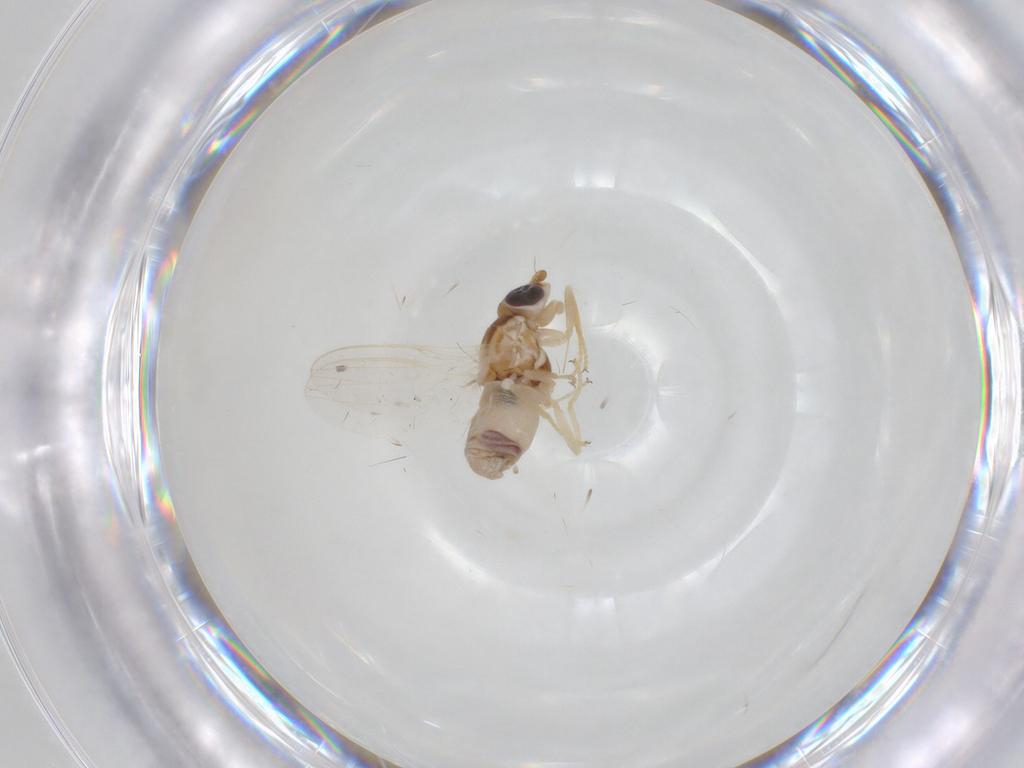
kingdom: Animalia
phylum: Arthropoda
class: Insecta
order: Diptera
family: Chloropidae
